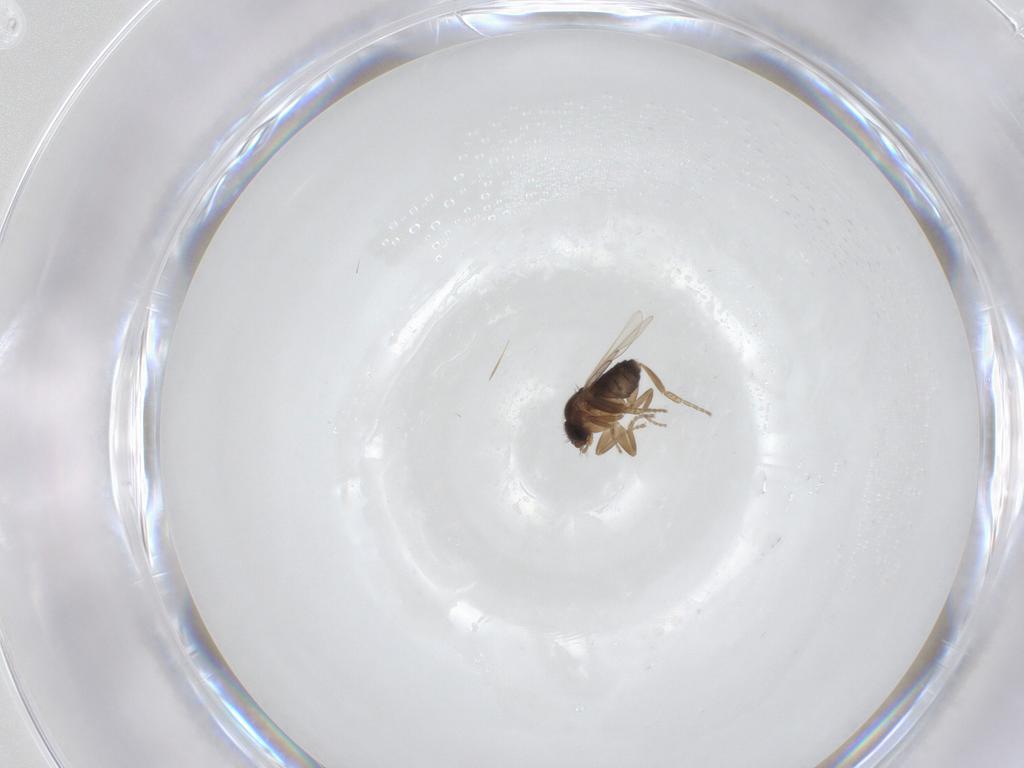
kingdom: Animalia
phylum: Arthropoda
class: Insecta
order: Diptera
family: Phoridae
